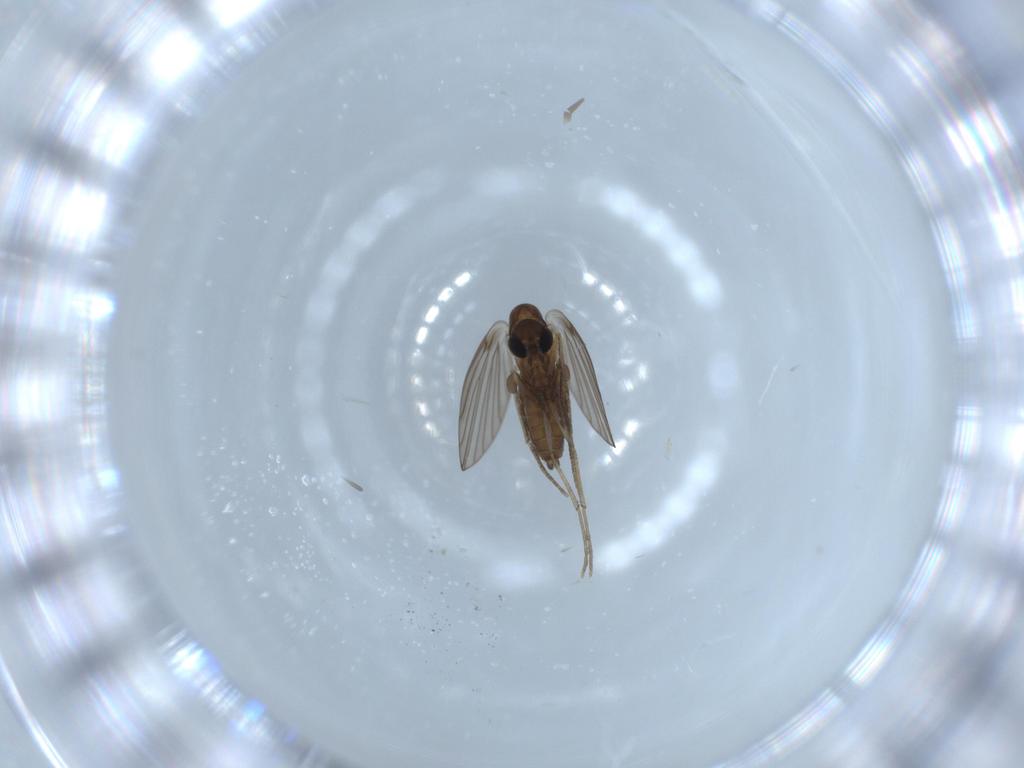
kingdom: Animalia
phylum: Arthropoda
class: Insecta
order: Diptera
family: Psychodidae
